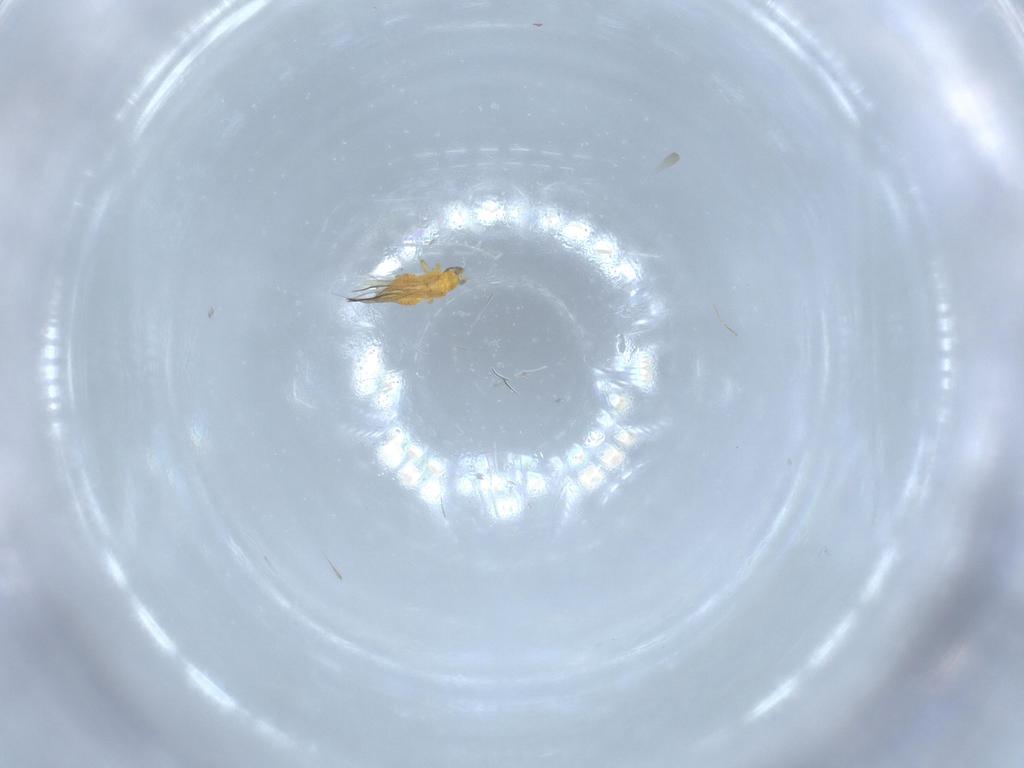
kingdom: Animalia
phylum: Arthropoda
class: Insecta
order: Thysanoptera
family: Thripidae
